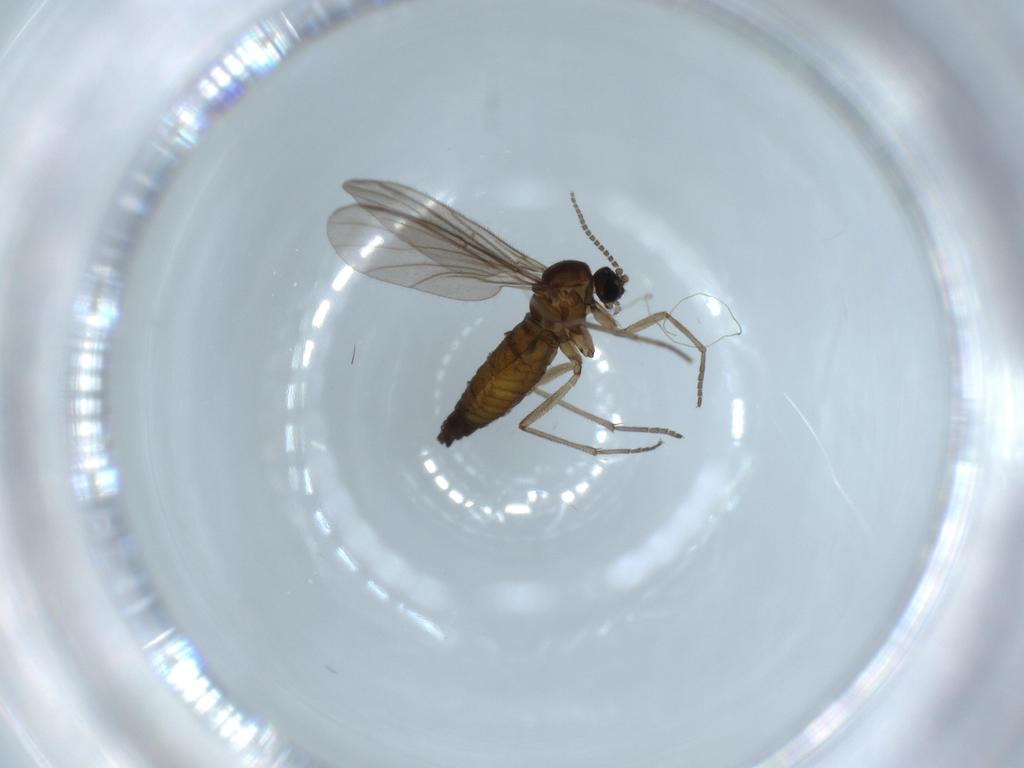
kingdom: Animalia
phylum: Arthropoda
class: Insecta
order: Diptera
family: Sciaridae
